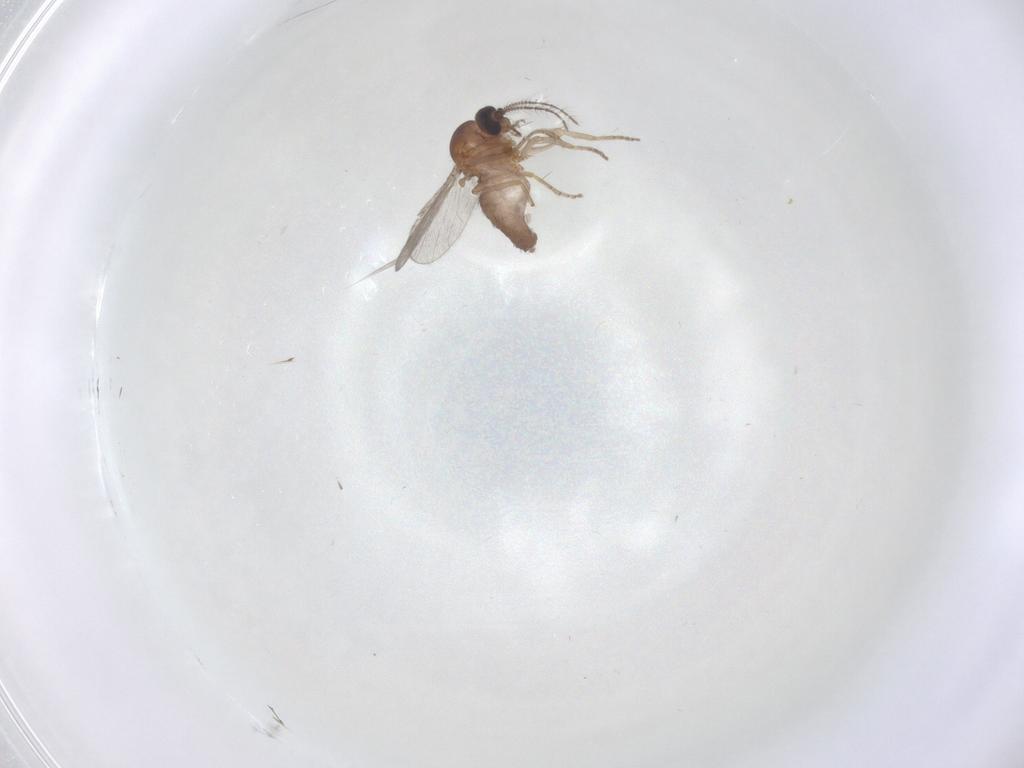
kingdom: Animalia
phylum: Arthropoda
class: Insecta
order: Diptera
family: Ceratopogonidae
